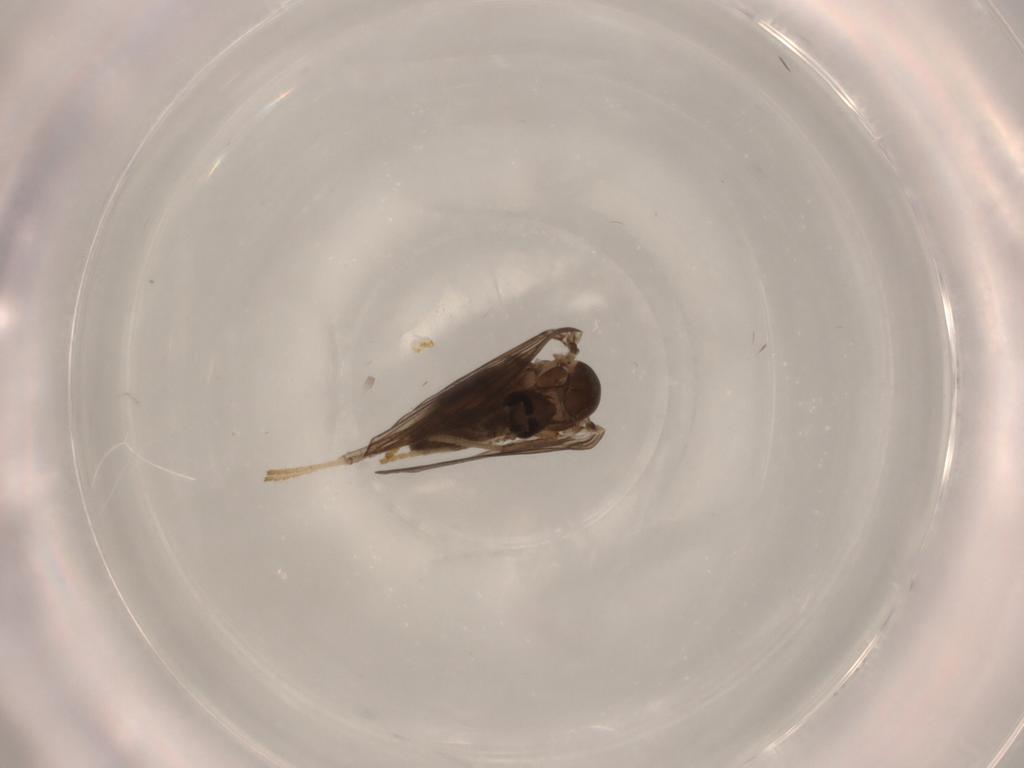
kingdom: Animalia
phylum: Arthropoda
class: Insecta
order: Diptera
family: Psychodidae
